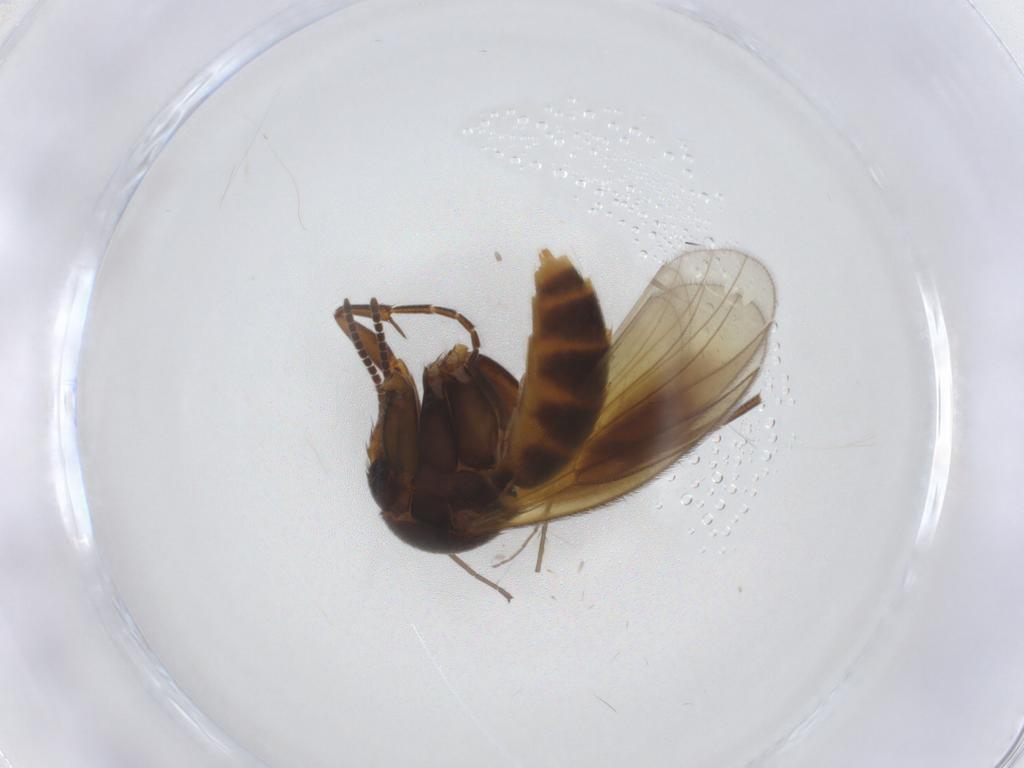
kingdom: Animalia
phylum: Arthropoda
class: Insecta
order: Diptera
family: Cecidomyiidae
